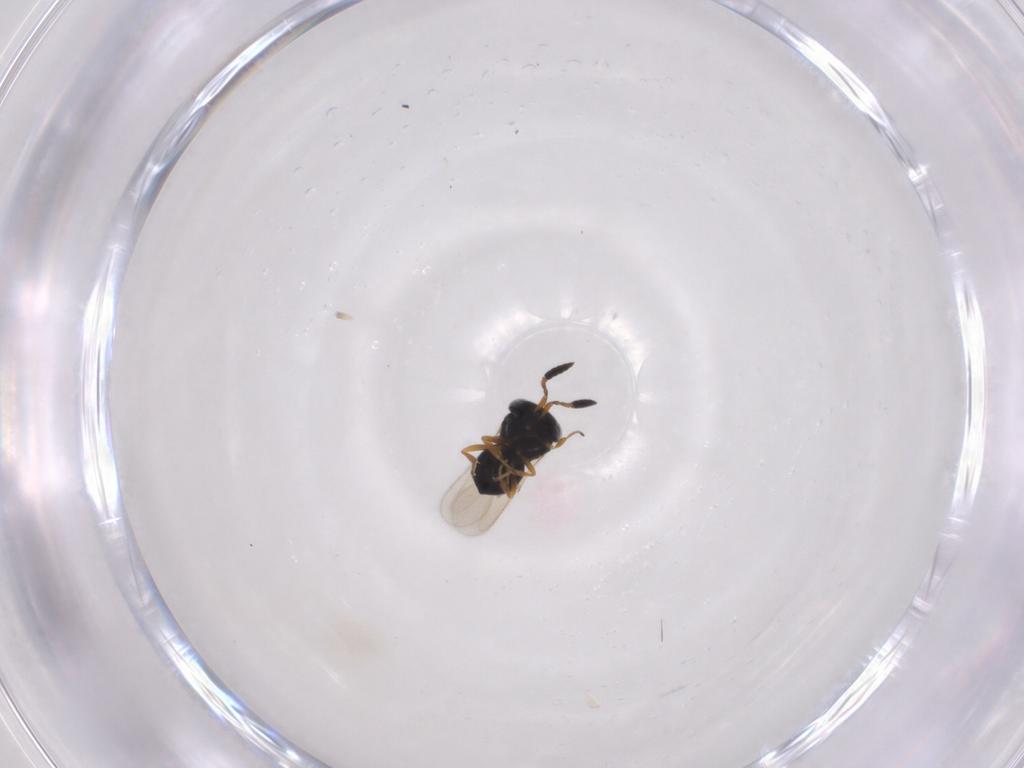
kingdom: Animalia
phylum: Arthropoda
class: Insecta
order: Hymenoptera
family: Scelionidae
